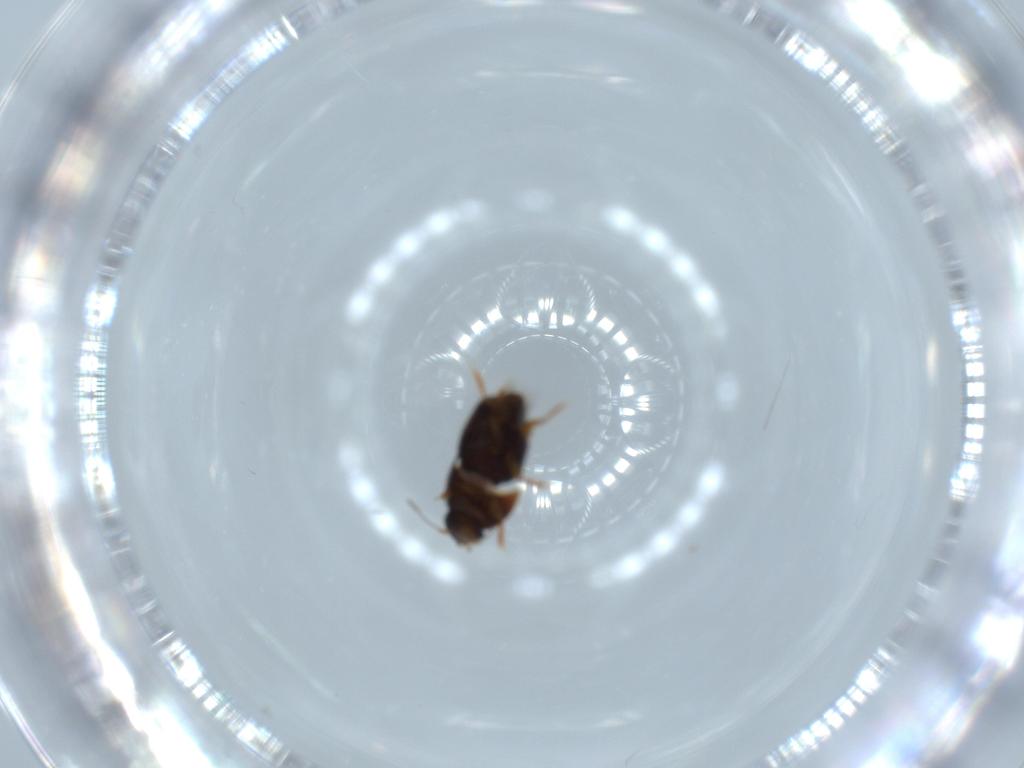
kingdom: Animalia
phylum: Arthropoda
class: Insecta
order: Coleoptera
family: Ptiliidae
